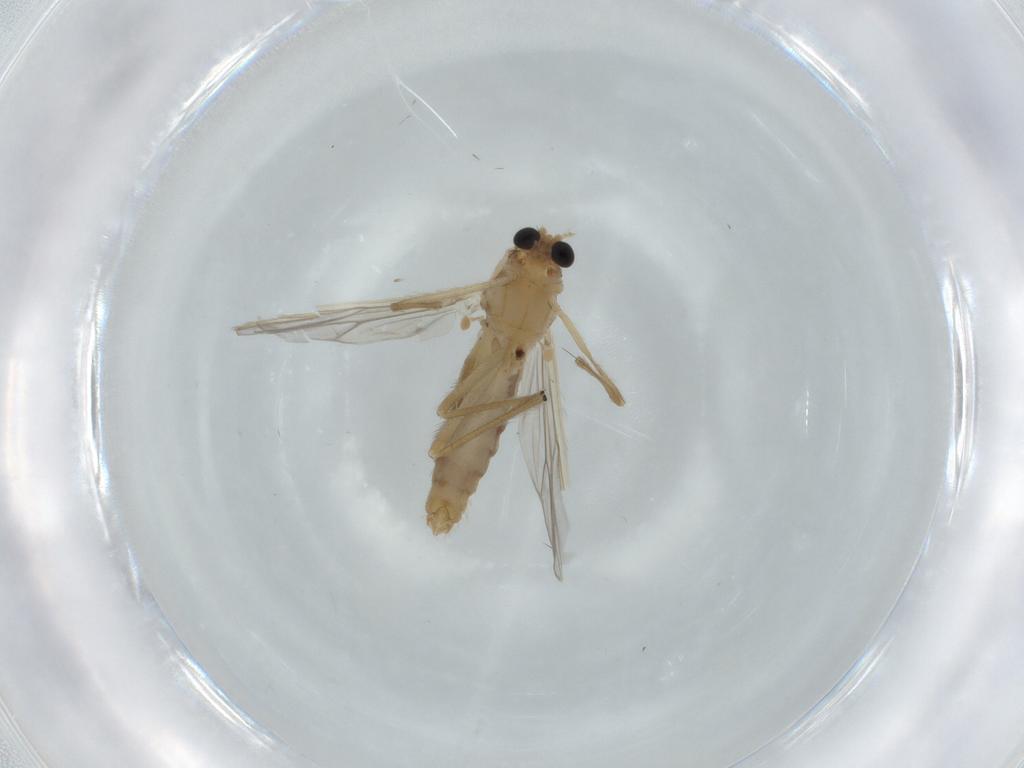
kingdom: Animalia
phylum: Arthropoda
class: Insecta
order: Diptera
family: Chironomidae
